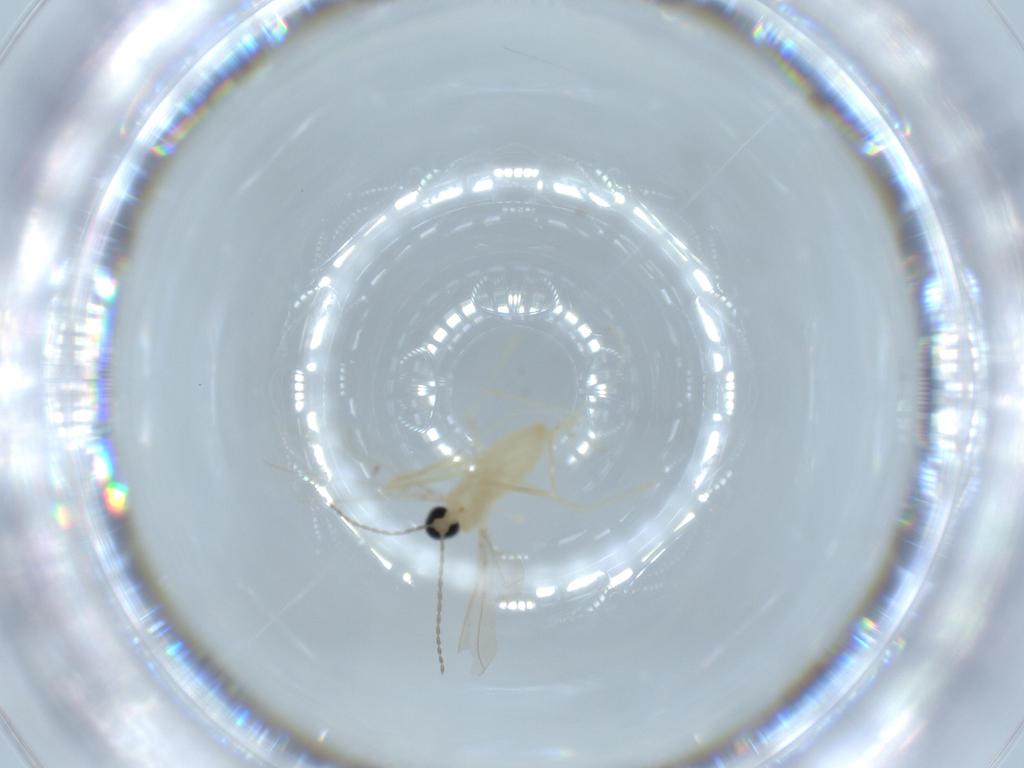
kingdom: Animalia
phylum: Arthropoda
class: Insecta
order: Diptera
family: Cecidomyiidae
